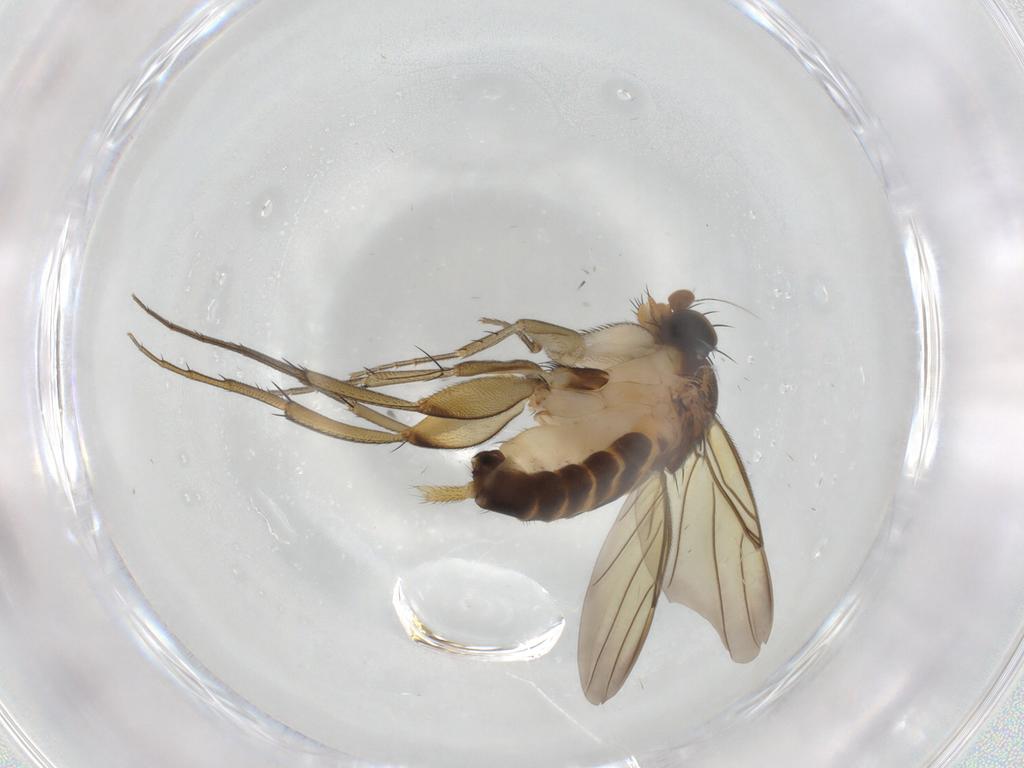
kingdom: Animalia
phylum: Arthropoda
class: Insecta
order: Diptera
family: Phoridae
